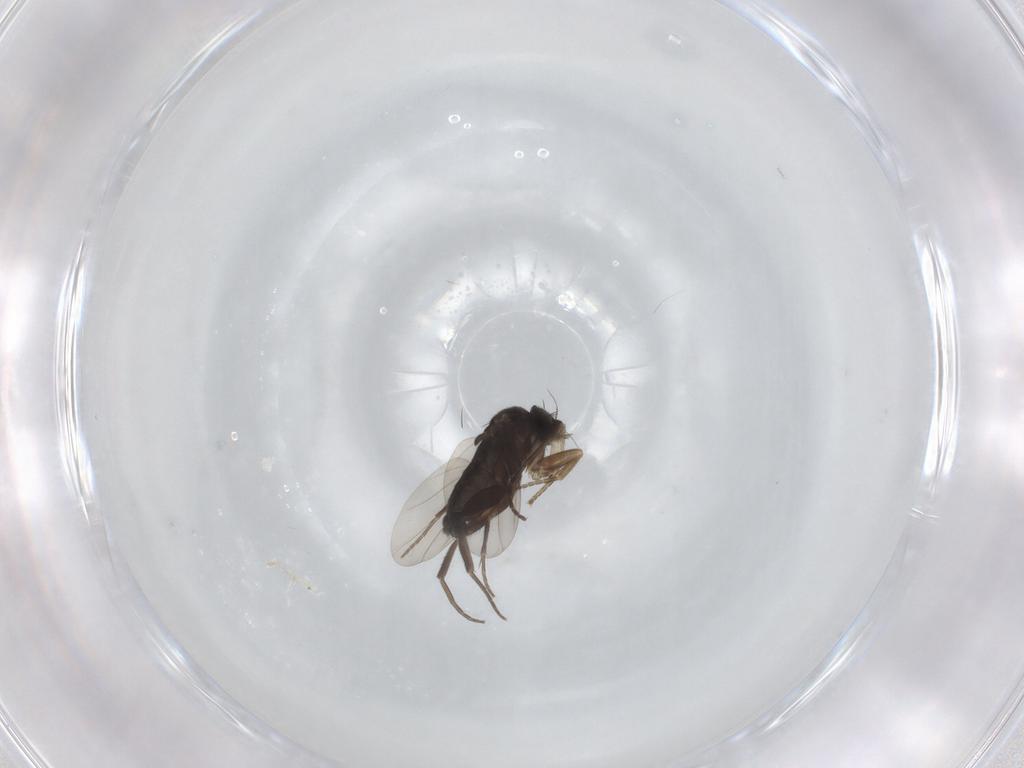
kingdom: Animalia
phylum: Arthropoda
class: Insecta
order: Diptera
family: Phoridae
